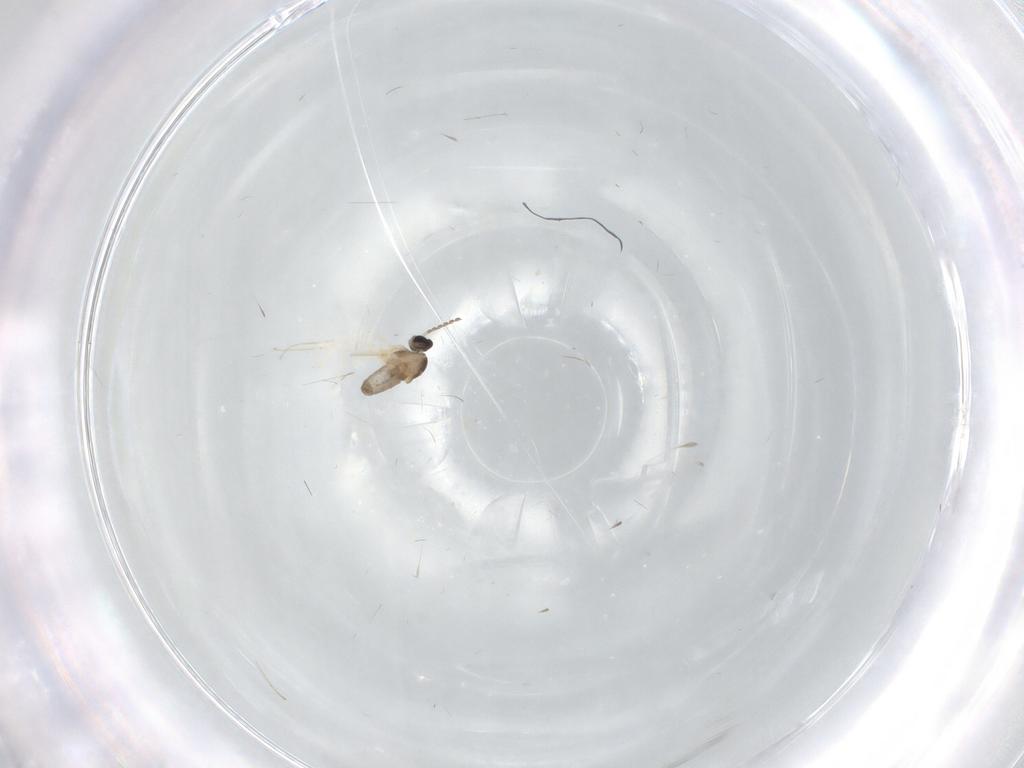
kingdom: Animalia
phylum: Arthropoda
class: Insecta
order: Diptera
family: Cecidomyiidae
